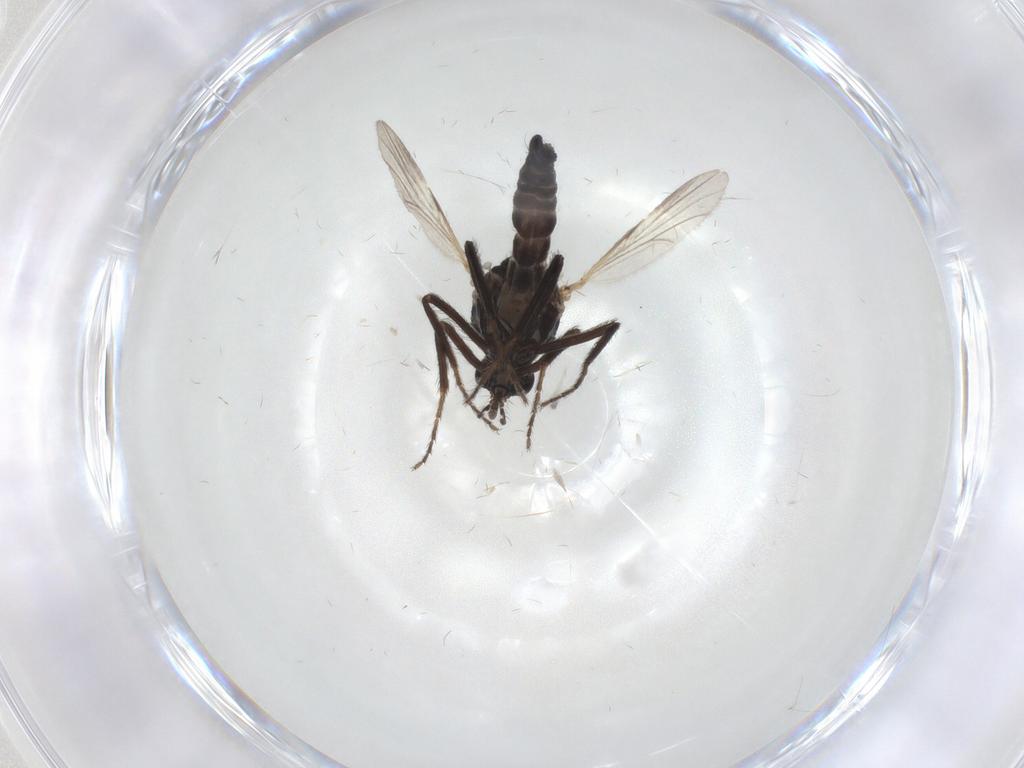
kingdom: Animalia
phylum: Arthropoda
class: Insecta
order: Diptera
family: Ceratopogonidae
